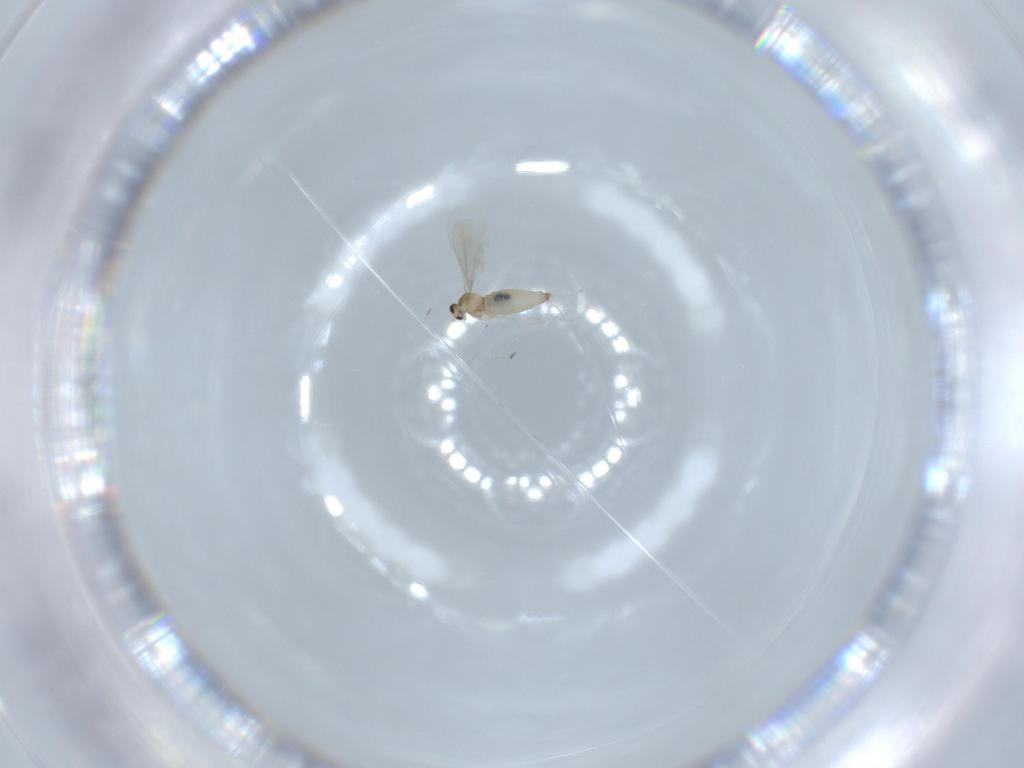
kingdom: Animalia
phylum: Arthropoda
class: Insecta
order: Diptera
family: Cecidomyiidae
